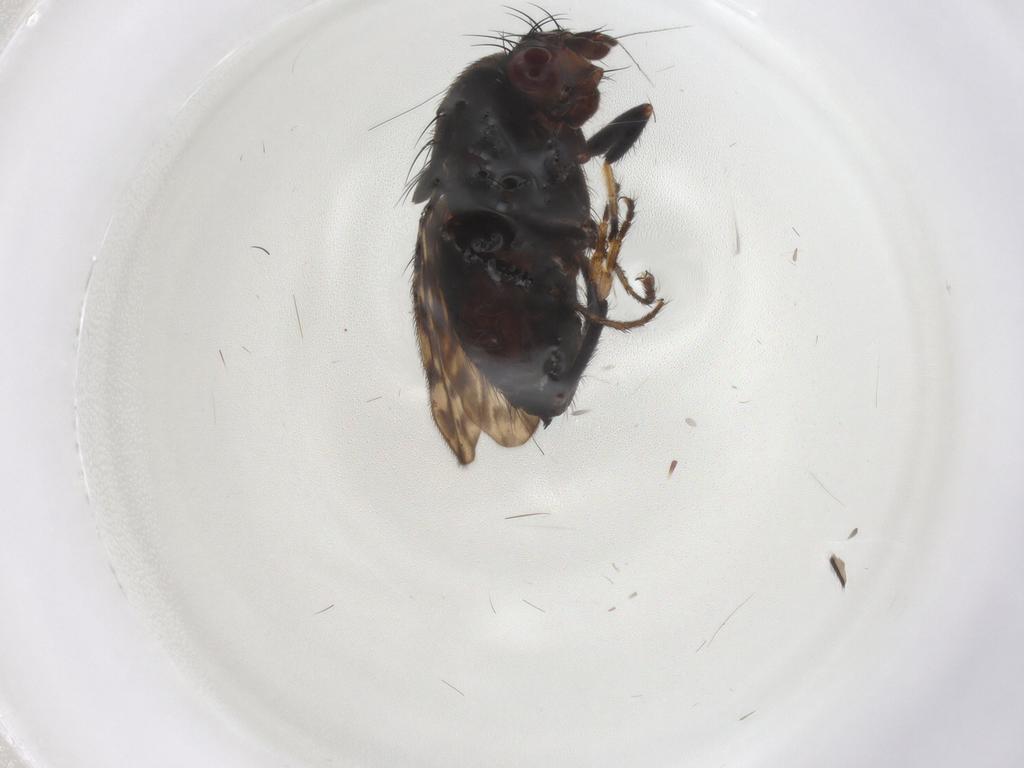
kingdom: Animalia
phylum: Arthropoda
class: Insecta
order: Diptera
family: Sphaeroceridae
